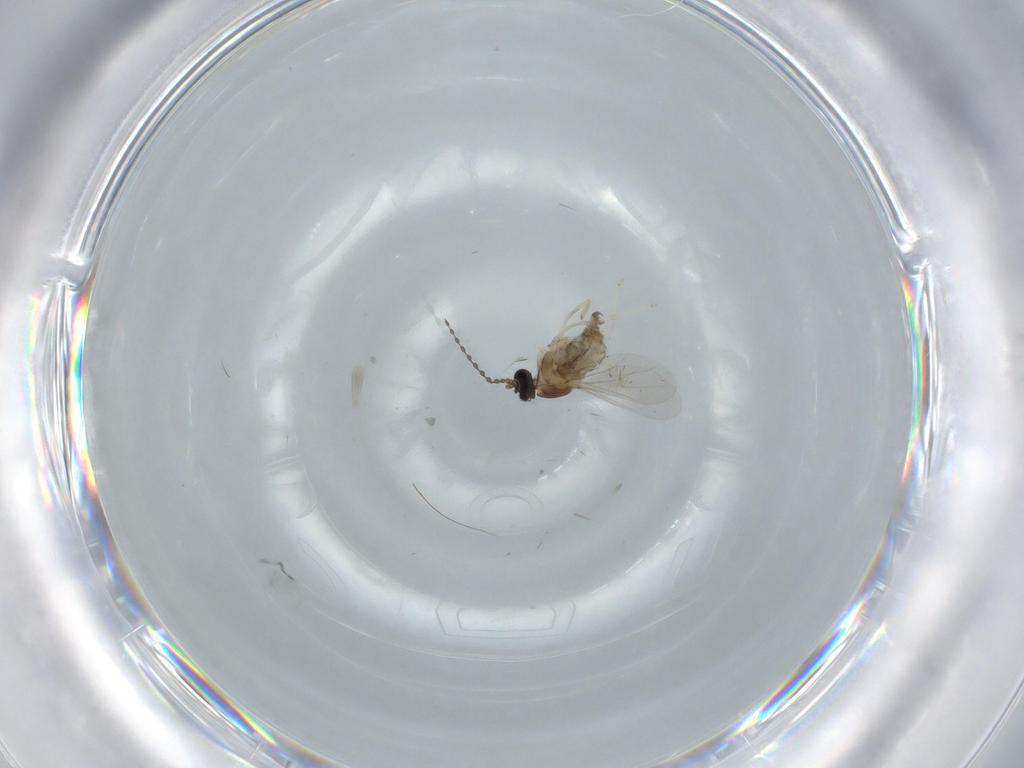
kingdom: Animalia
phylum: Arthropoda
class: Insecta
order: Diptera
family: Cecidomyiidae
